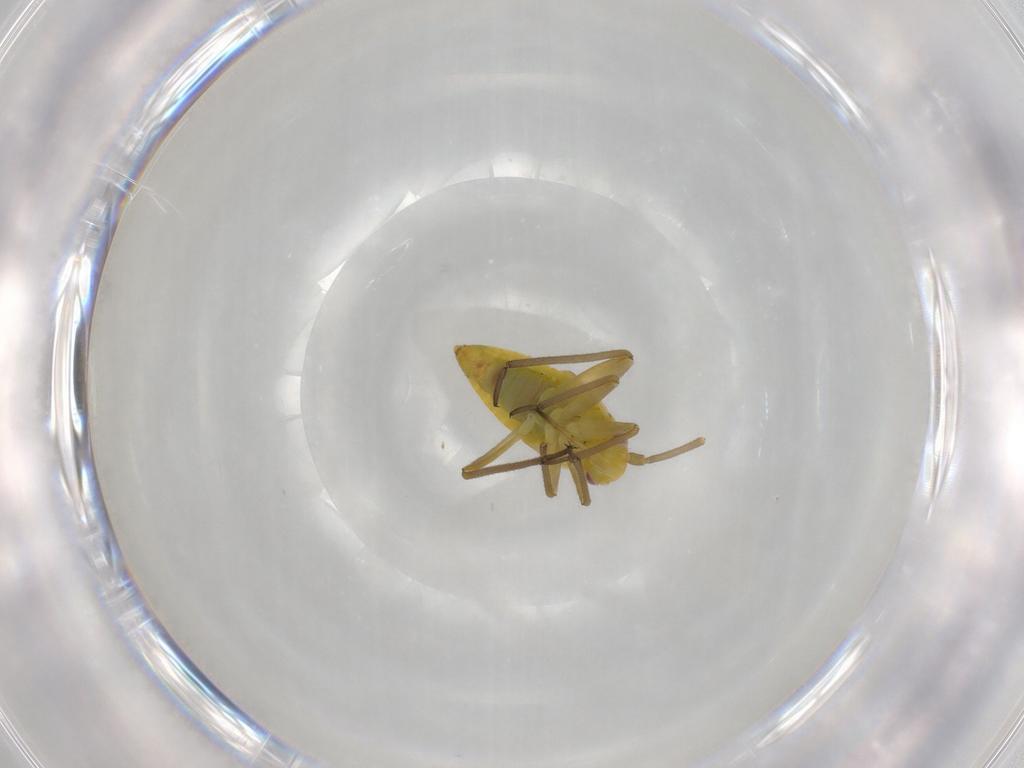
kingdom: Animalia
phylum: Arthropoda
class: Insecta
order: Hemiptera
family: Miridae
